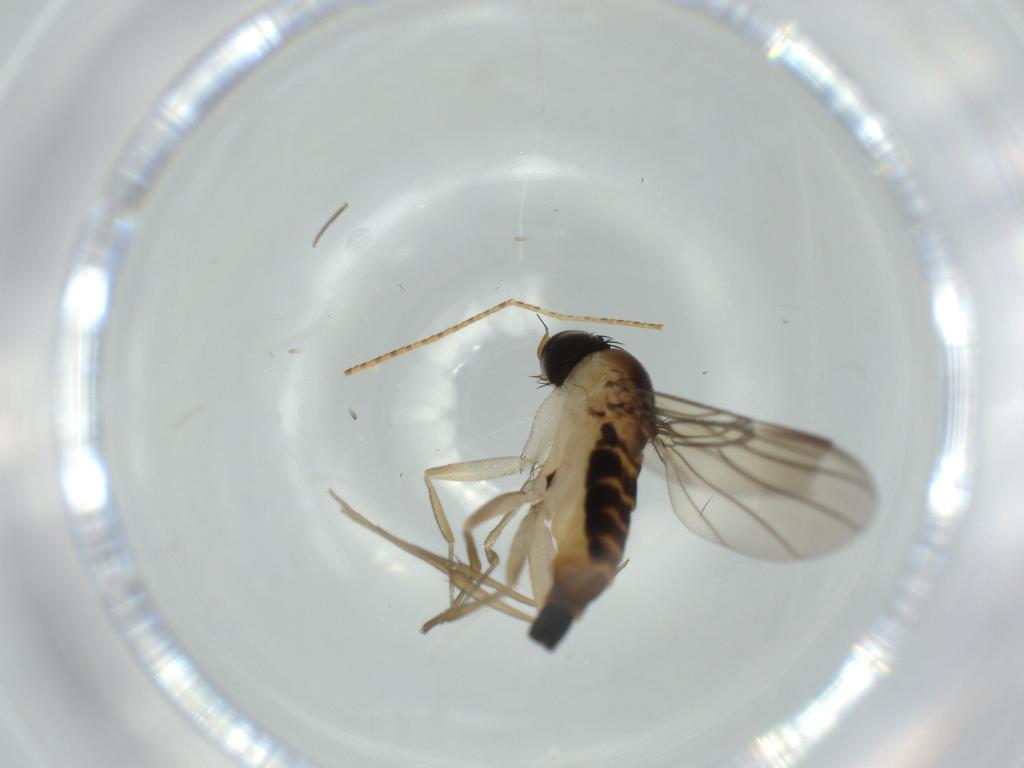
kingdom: Animalia
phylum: Arthropoda
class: Insecta
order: Diptera
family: Phoridae
